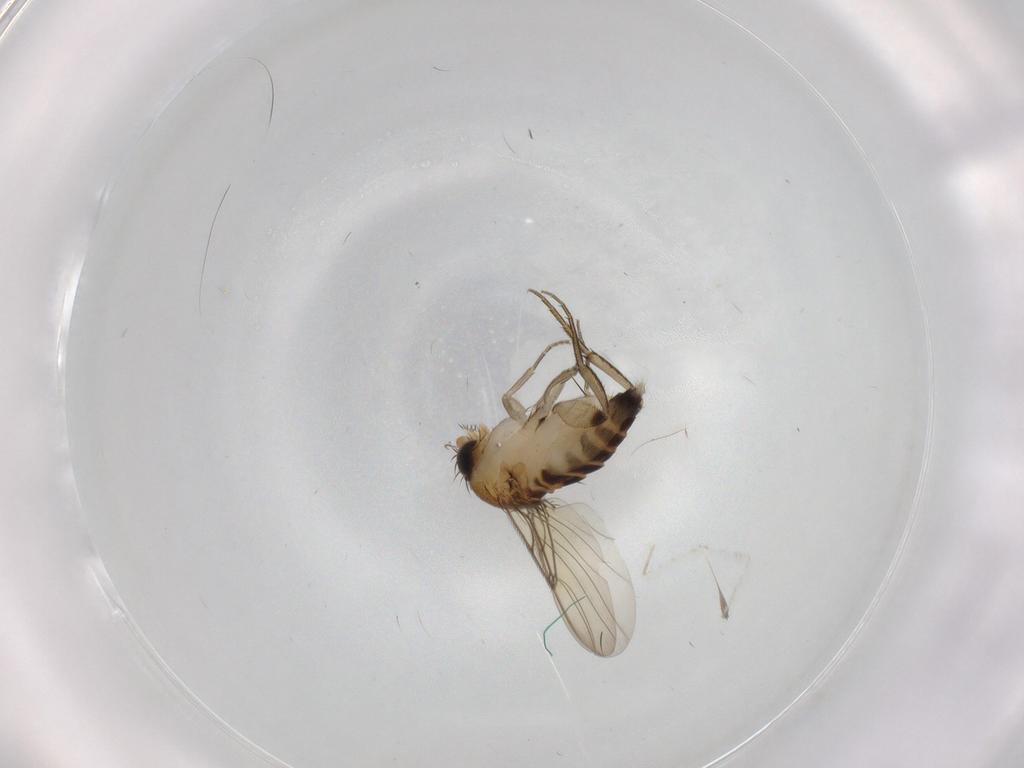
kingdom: Animalia
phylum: Arthropoda
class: Insecta
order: Diptera
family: Phoridae
